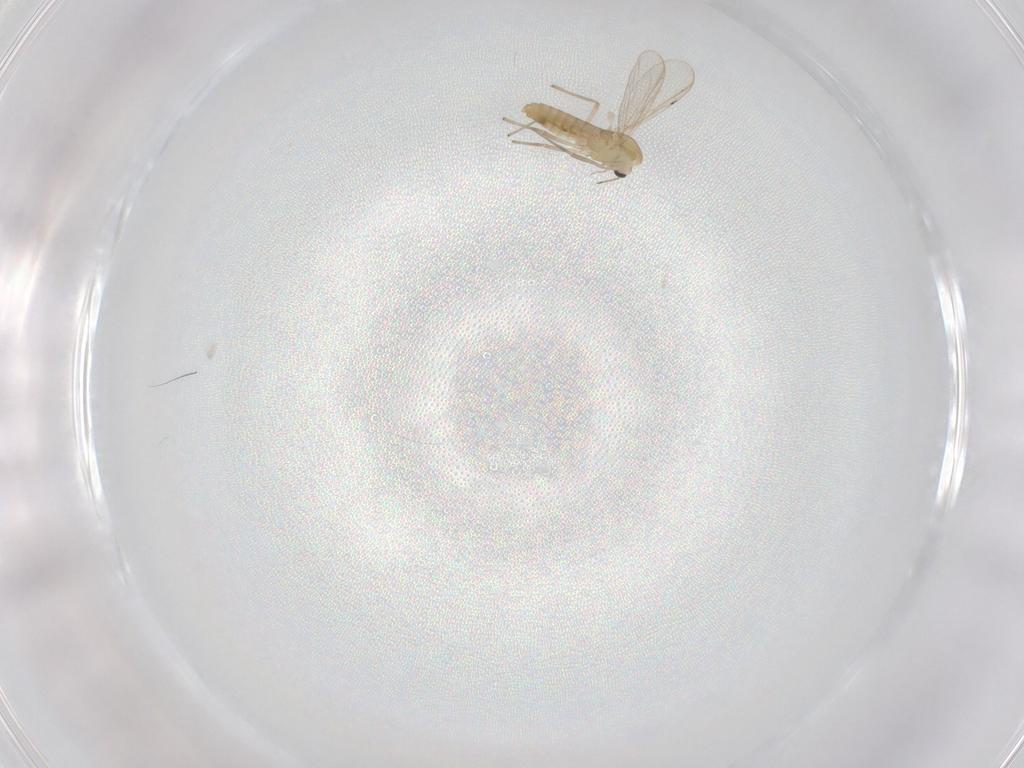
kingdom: Animalia
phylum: Arthropoda
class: Insecta
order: Diptera
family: Chironomidae
